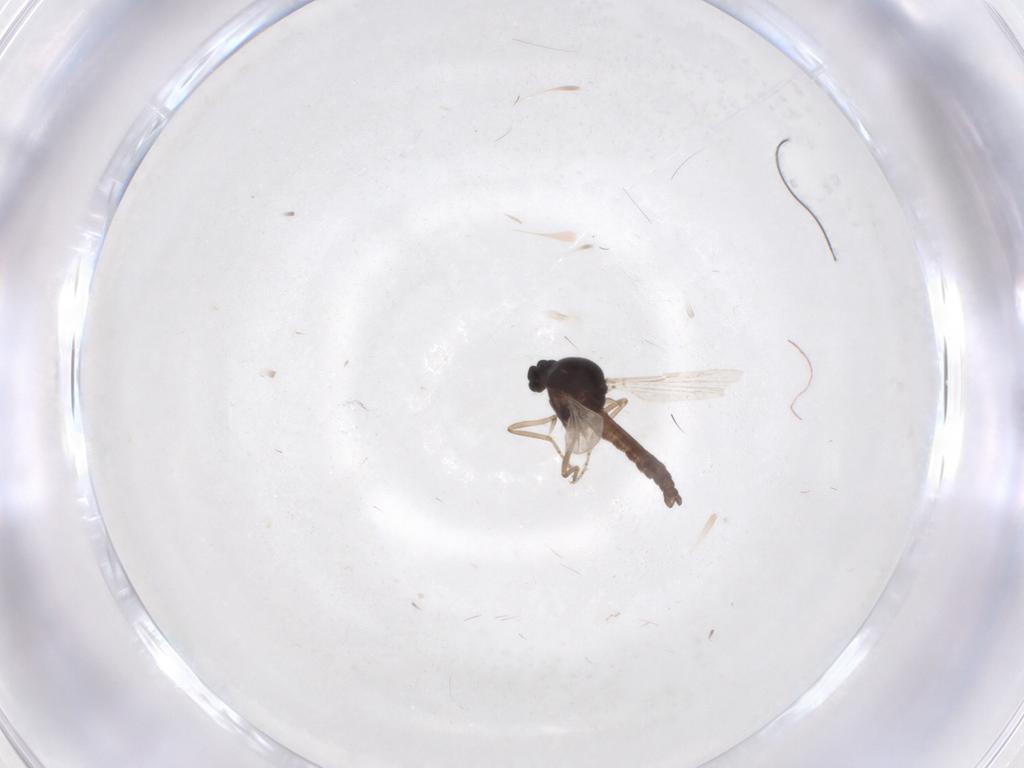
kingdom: Animalia
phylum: Arthropoda
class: Insecta
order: Diptera
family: Ceratopogonidae
